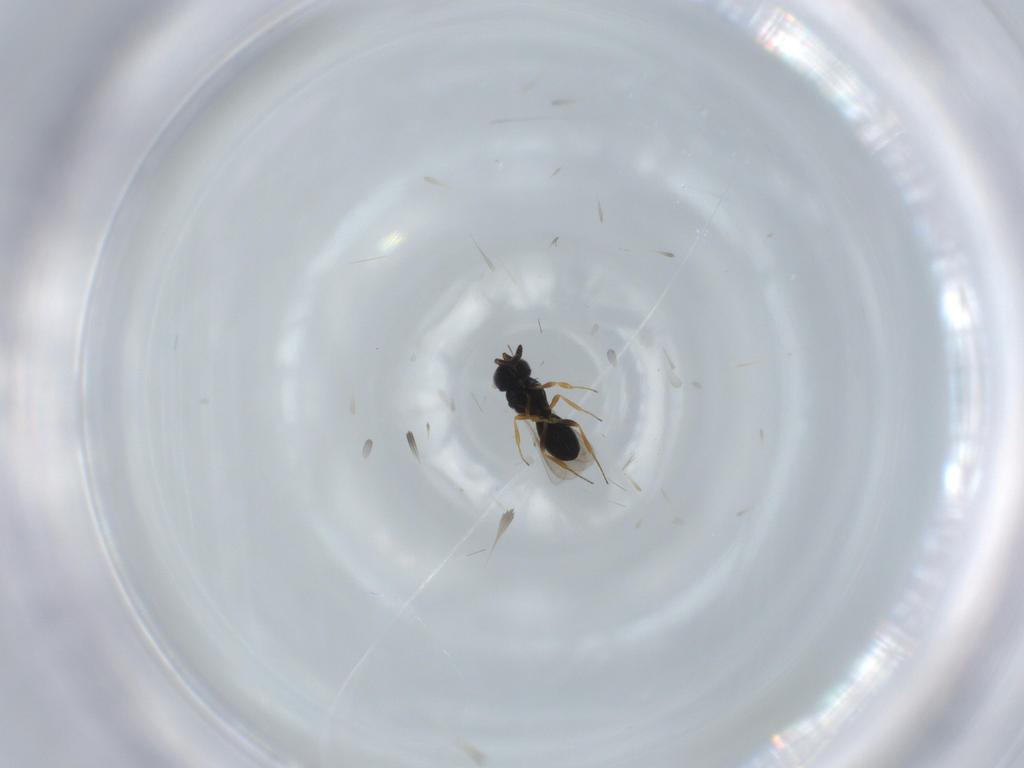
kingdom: Animalia
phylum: Arthropoda
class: Insecta
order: Hymenoptera
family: Scelionidae
